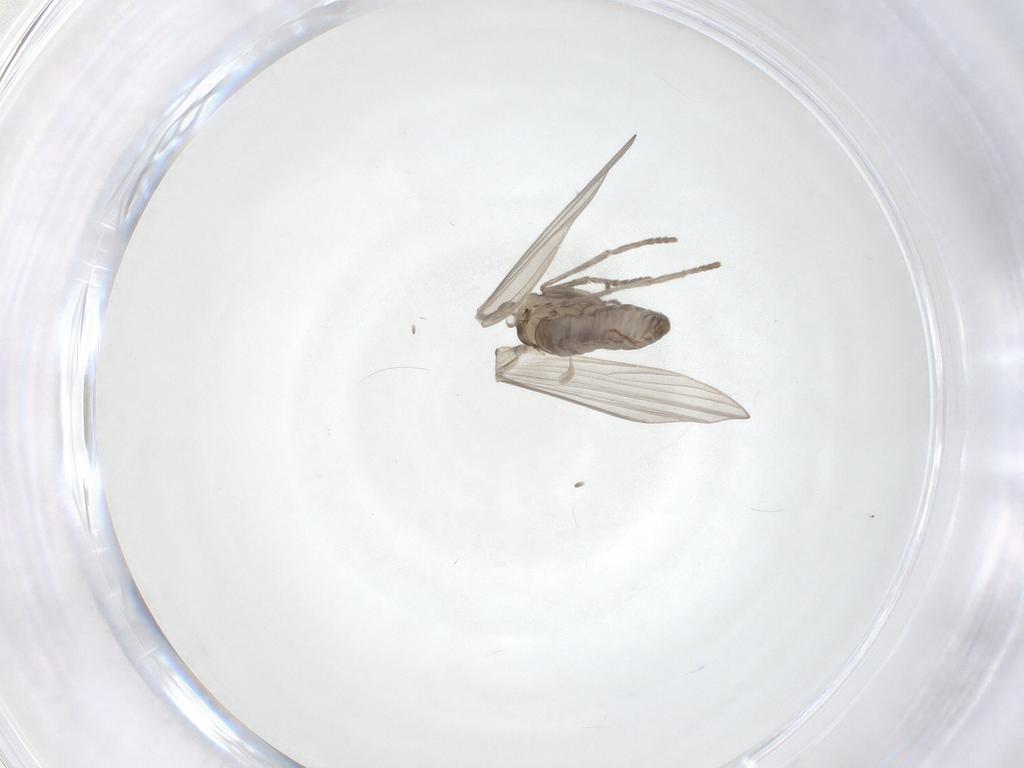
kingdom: Animalia
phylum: Arthropoda
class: Insecta
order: Diptera
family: Psychodidae
